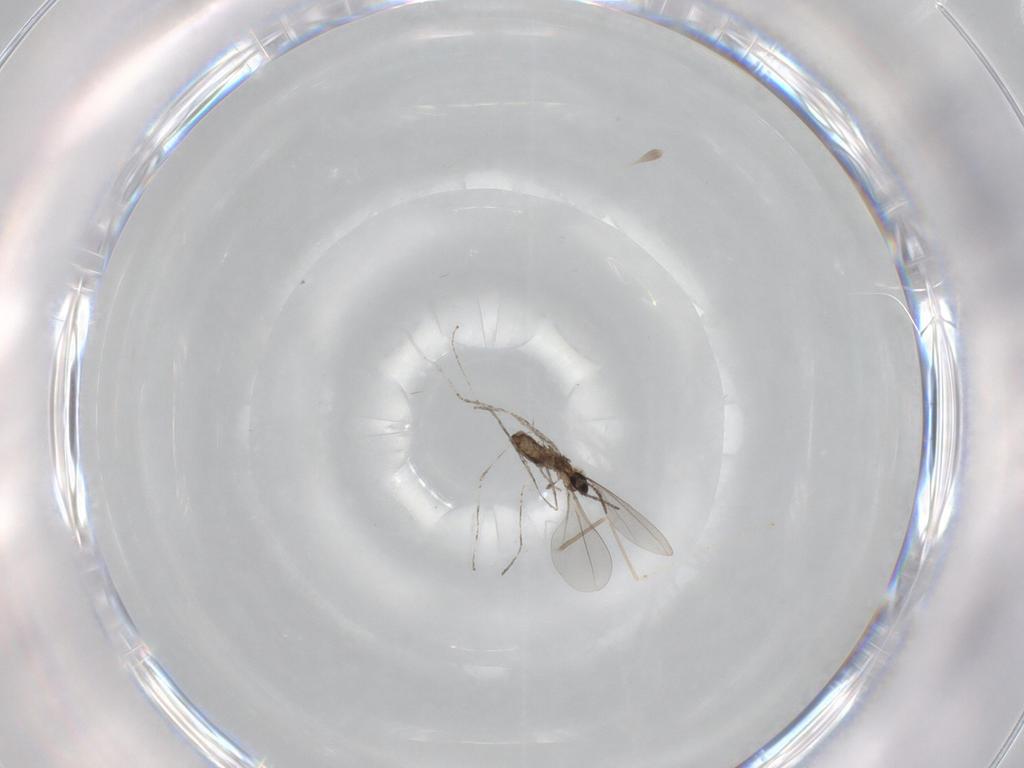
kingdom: Animalia
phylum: Arthropoda
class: Insecta
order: Diptera
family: Cecidomyiidae
